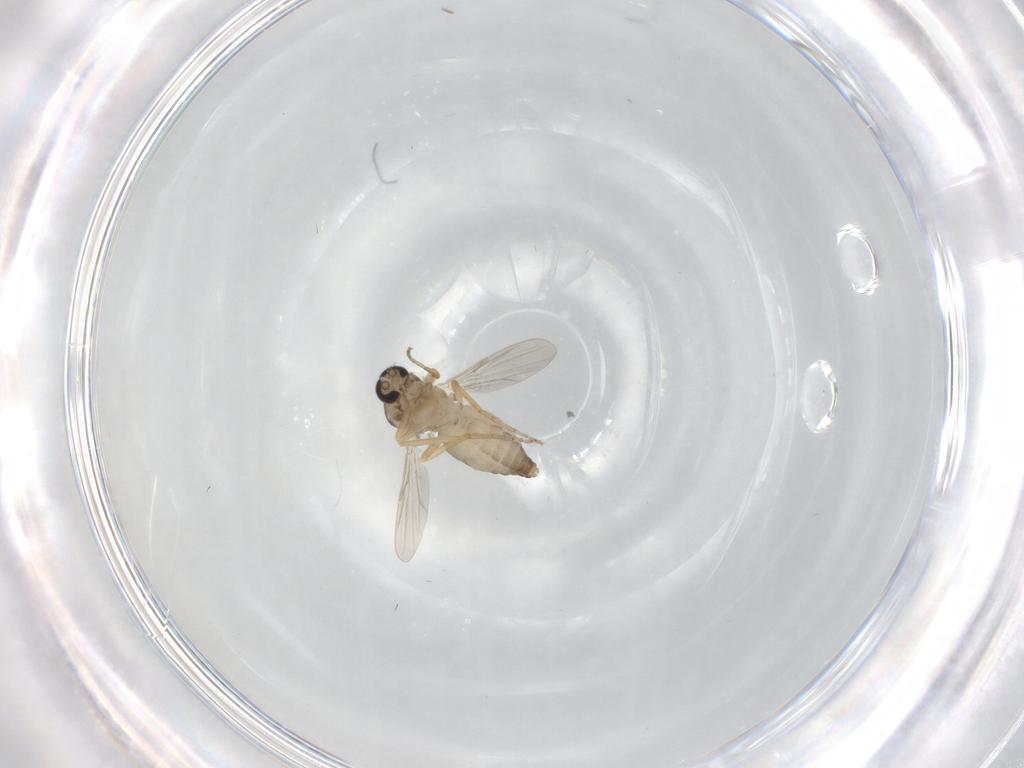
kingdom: Animalia
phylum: Arthropoda
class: Insecta
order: Diptera
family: Ceratopogonidae
